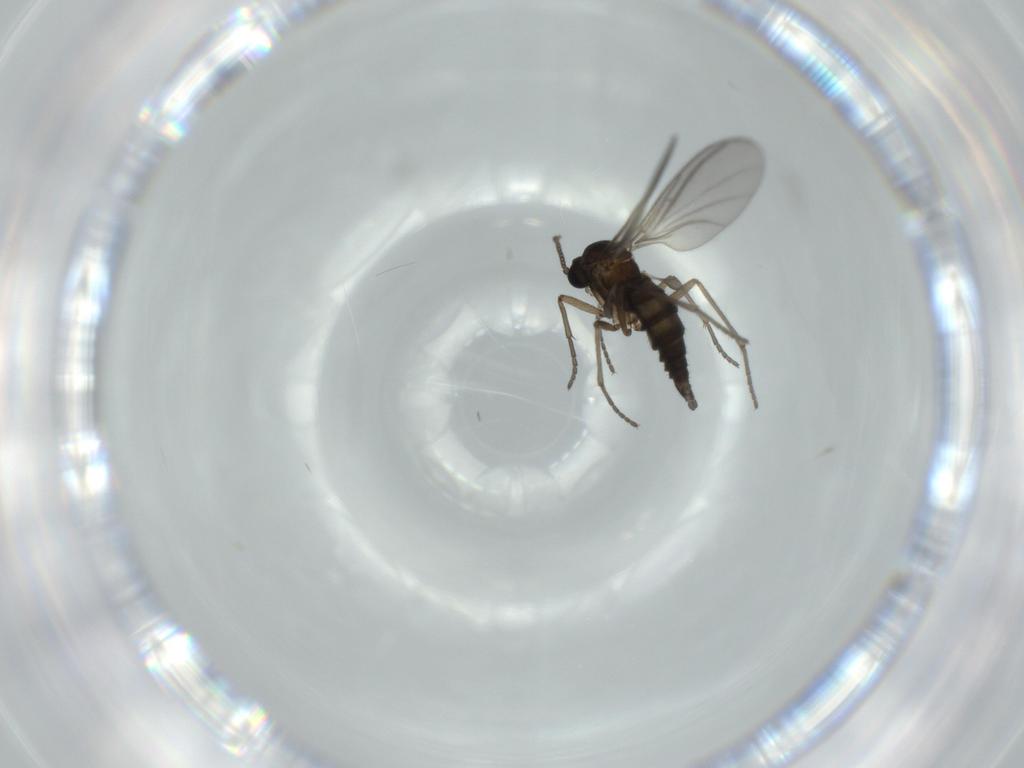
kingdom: Animalia
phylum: Arthropoda
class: Insecta
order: Diptera
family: Sciaridae
